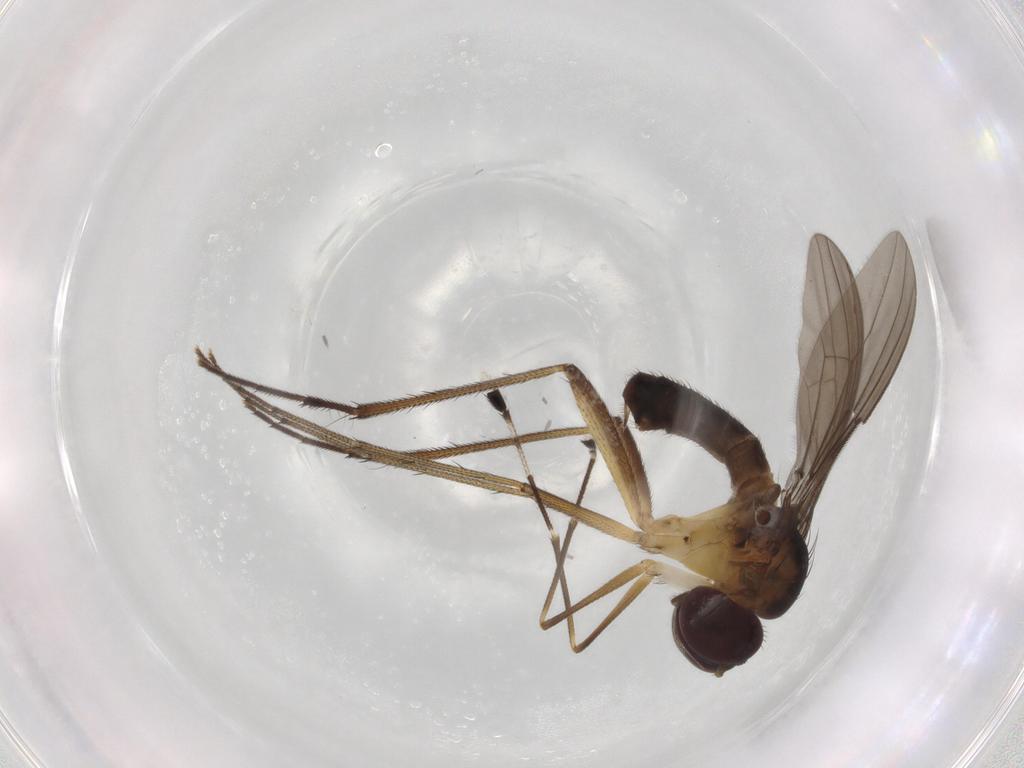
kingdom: Animalia
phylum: Arthropoda
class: Insecta
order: Diptera
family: Dolichopodidae
